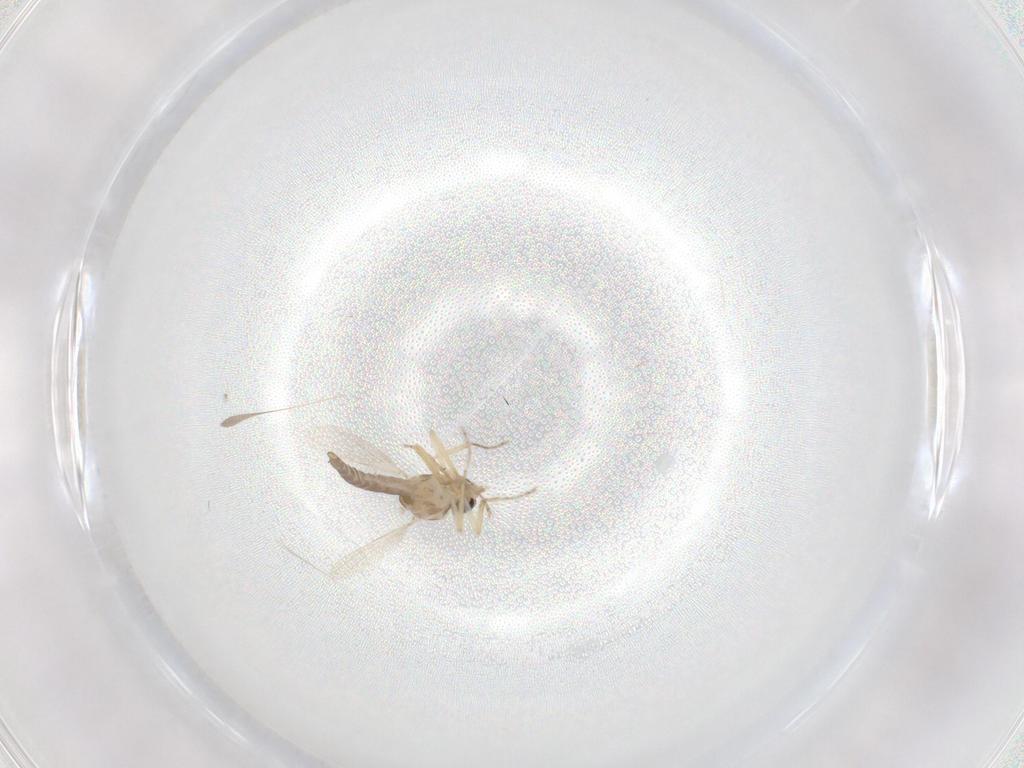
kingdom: Animalia
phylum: Arthropoda
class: Insecta
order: Diptera
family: Ceratopogonidae
